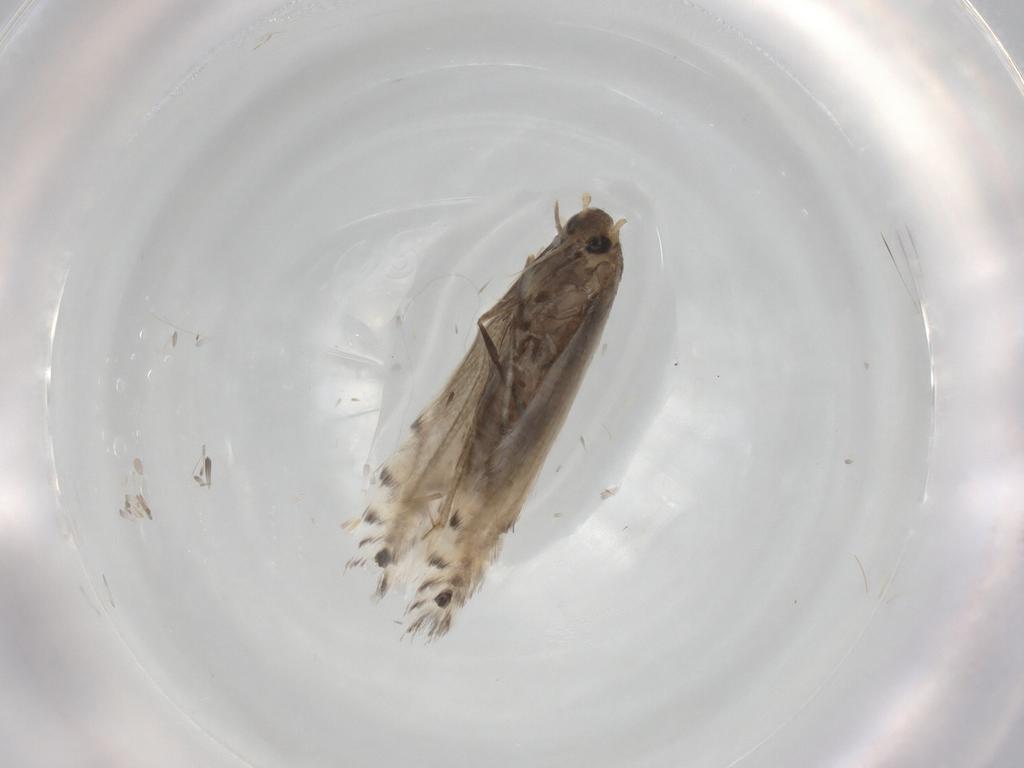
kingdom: Animalia
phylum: Arthropoda
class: Insecta
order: Lepidoptera
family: Gracillariidae
